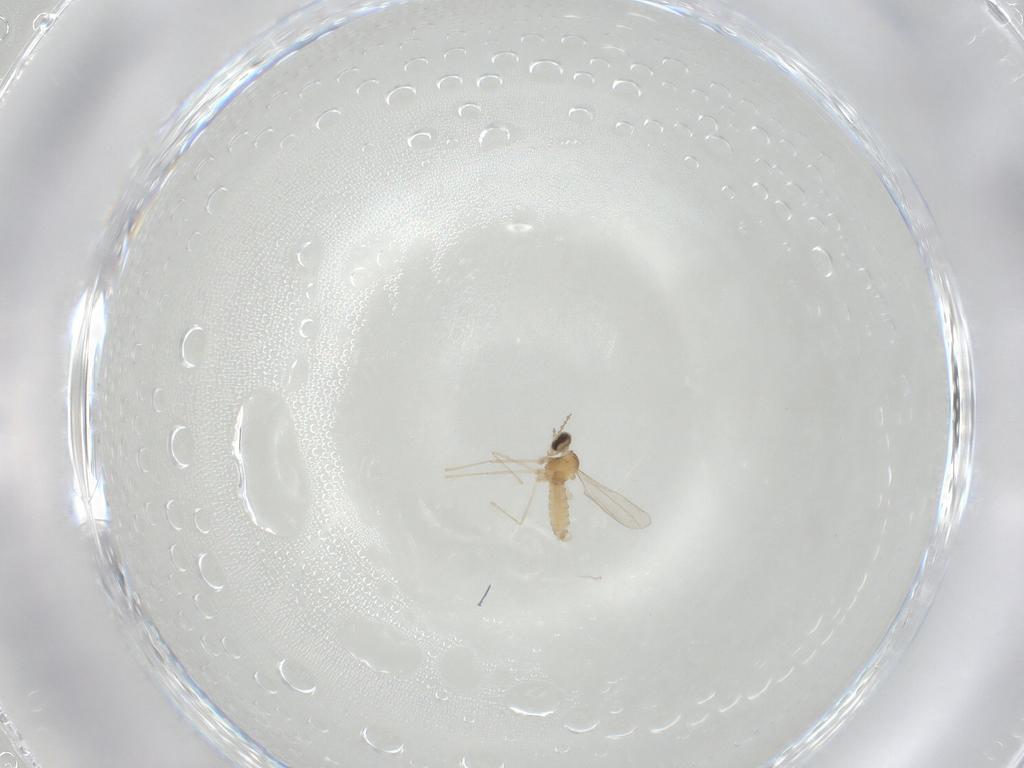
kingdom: Animalia
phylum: Arthropoda
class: Insecta
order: Diptera
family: Cecidomyiidae
